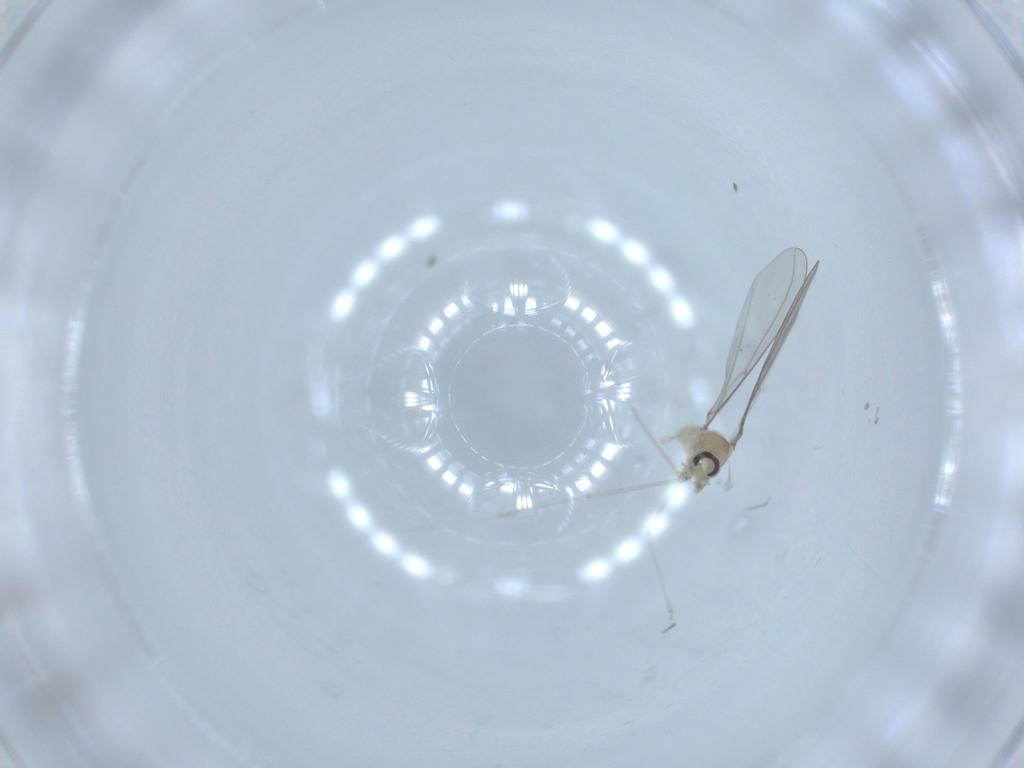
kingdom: Animalia
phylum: Arthropoda
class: Insecta
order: Diptera
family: Cecidomyiidae
